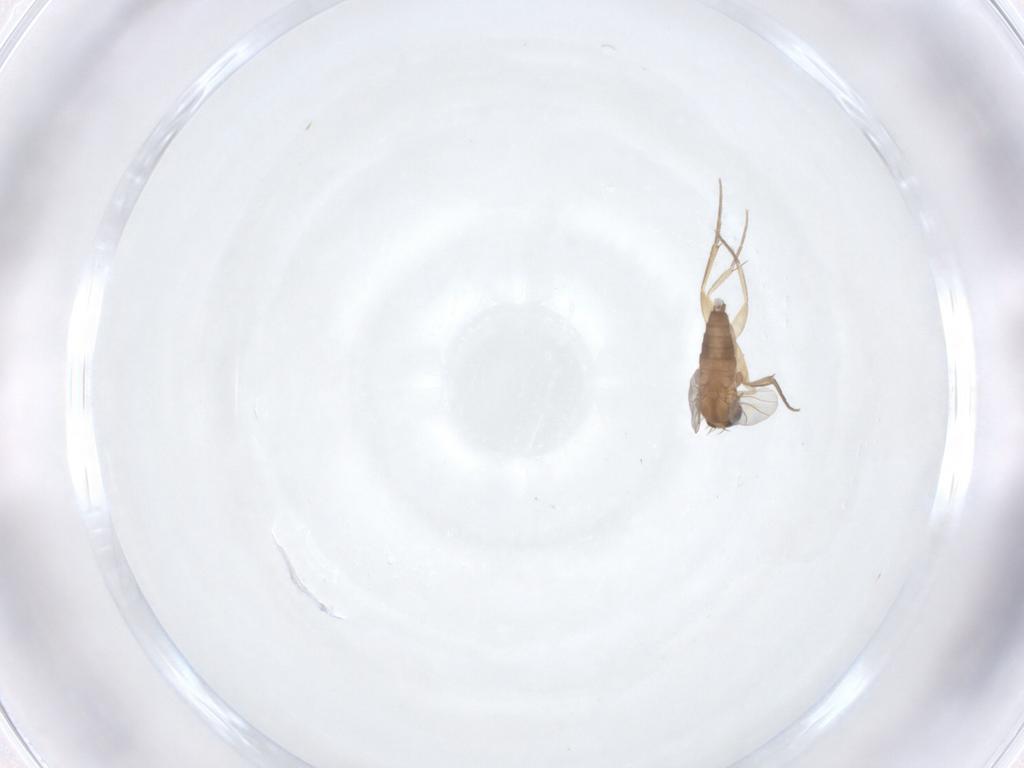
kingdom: Animalia
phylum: Arthropoda
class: Insecta
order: Diptera
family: Phoridae
